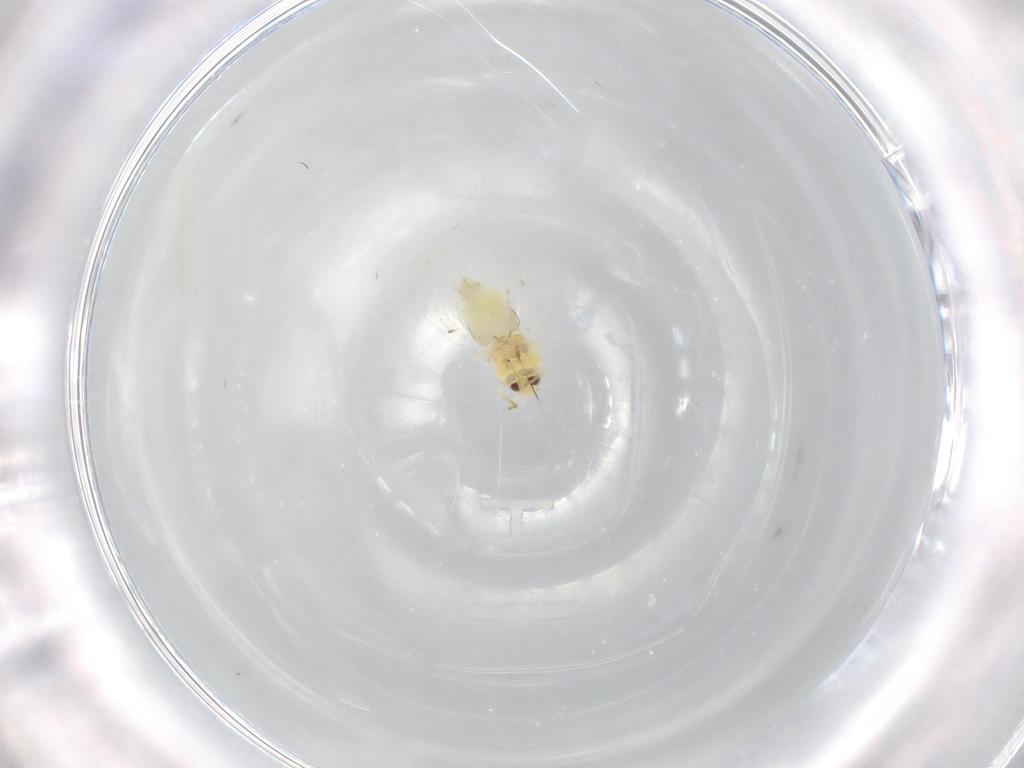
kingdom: Animalia
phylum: Arthropoda
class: Insecta
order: Hemiptera
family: Aleyrodidae
